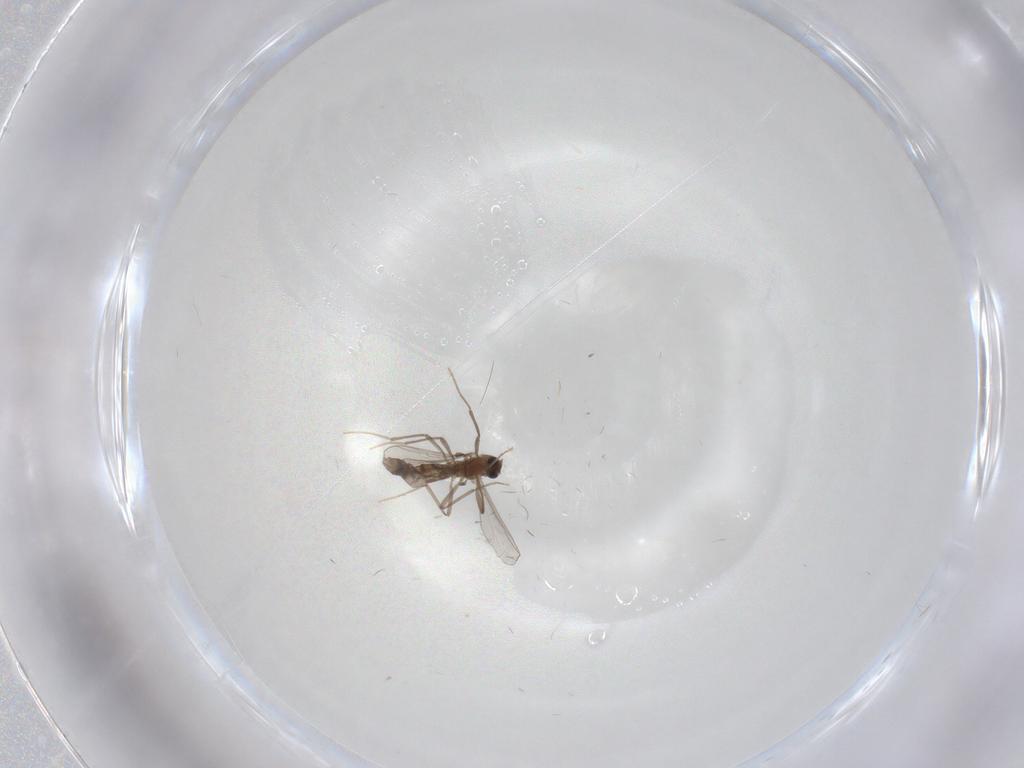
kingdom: Animalia
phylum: Arthropoda
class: Insecta
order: Diptera
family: Chironomidae
